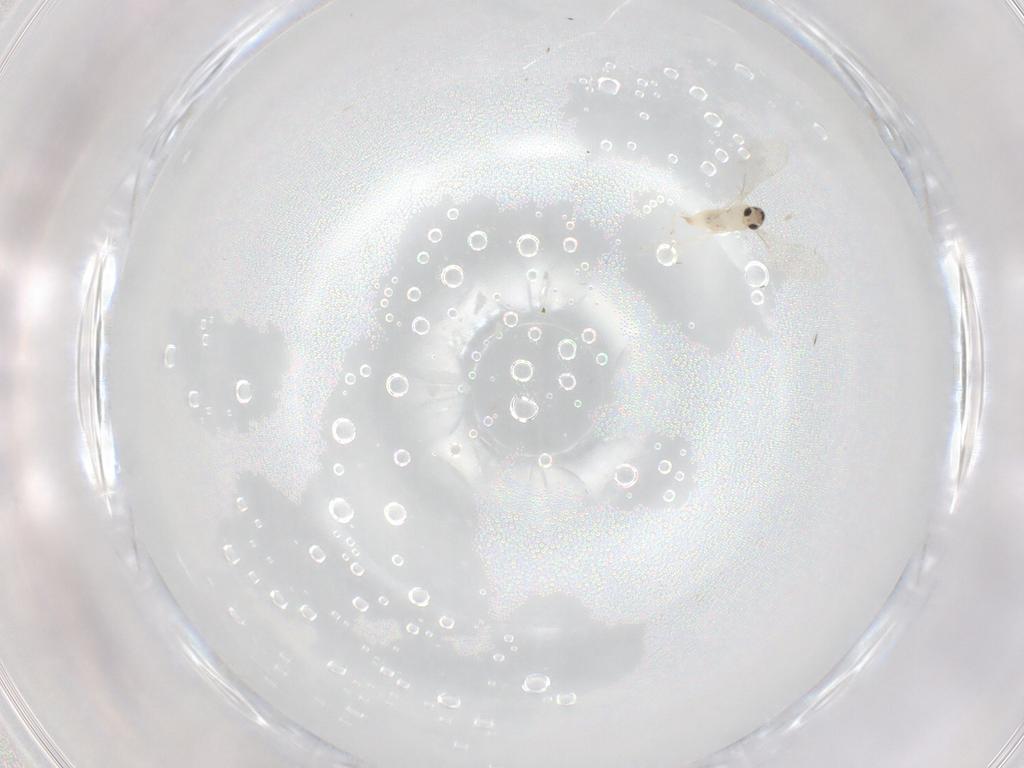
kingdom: Animalia
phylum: Arthropoda
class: Insecta
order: Diptera
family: Cecidomyiidae
